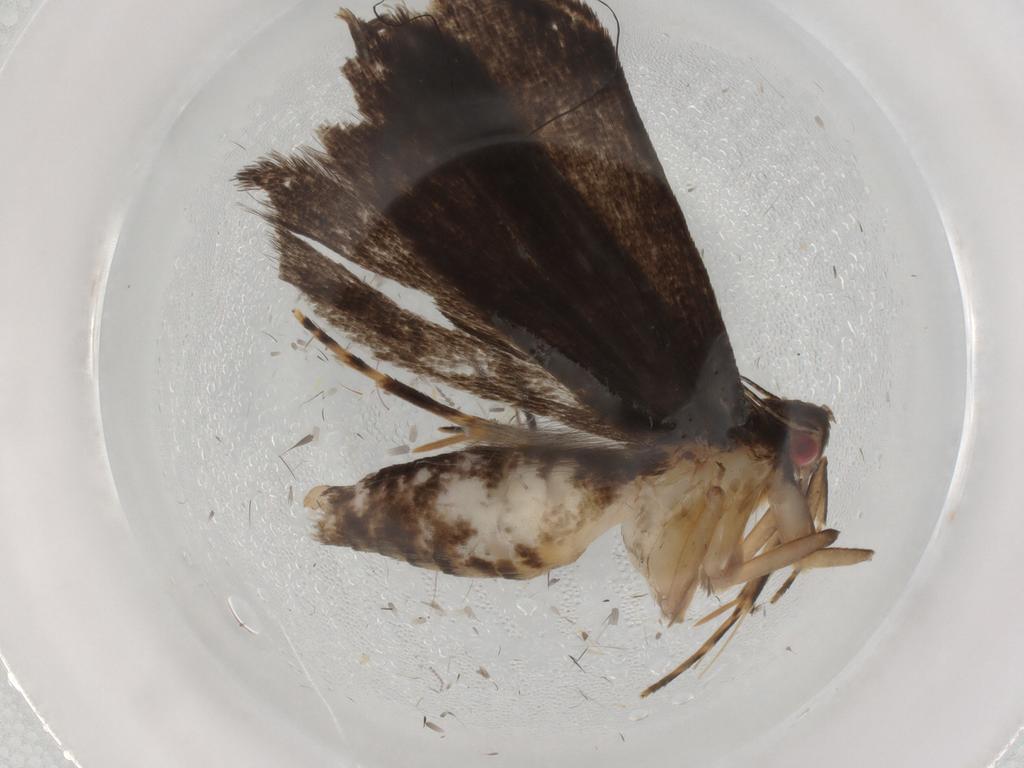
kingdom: Animalia
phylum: Arthropoda
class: Insecta
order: Lepidoptera
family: Gelechiidae
